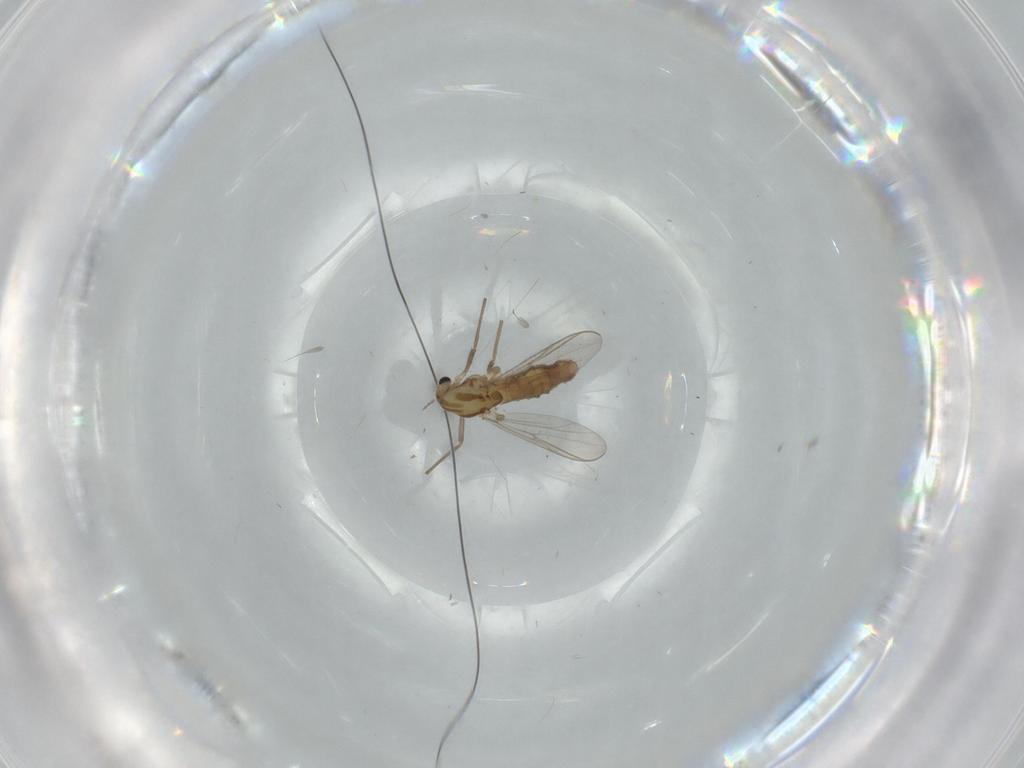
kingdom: Animalia
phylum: Arthropoda
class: Insecta
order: Diptera
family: Chironomidae
